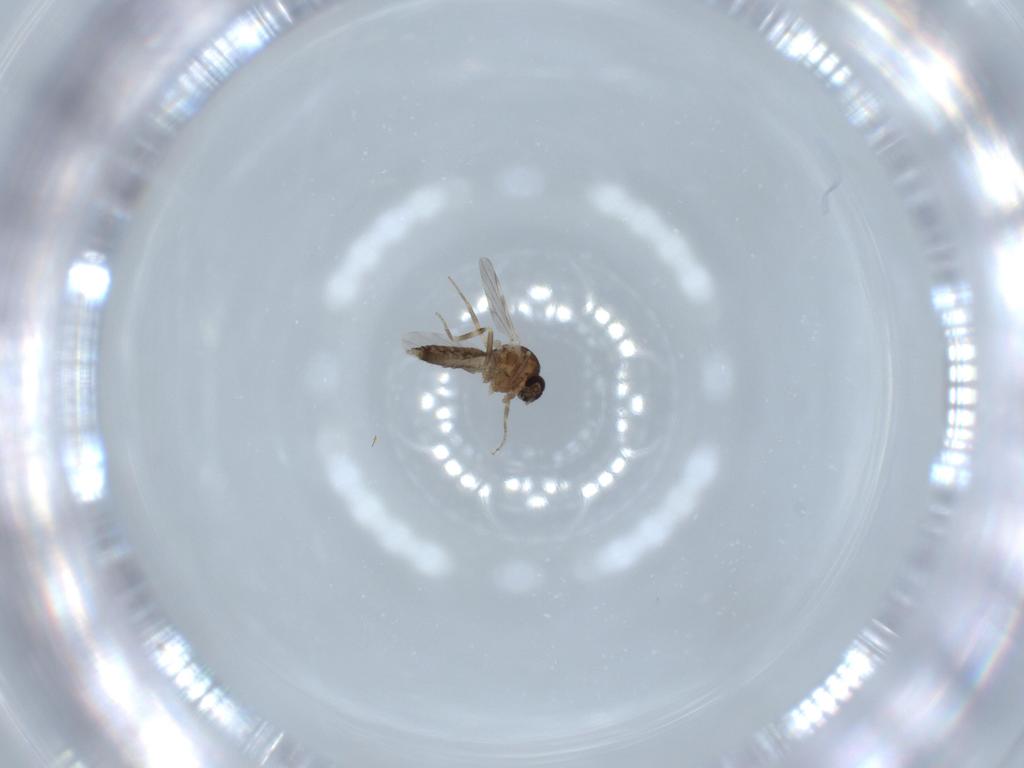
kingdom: Animalia
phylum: Arthropoda
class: Insecta
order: Diptera
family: Ceratopogonidae
